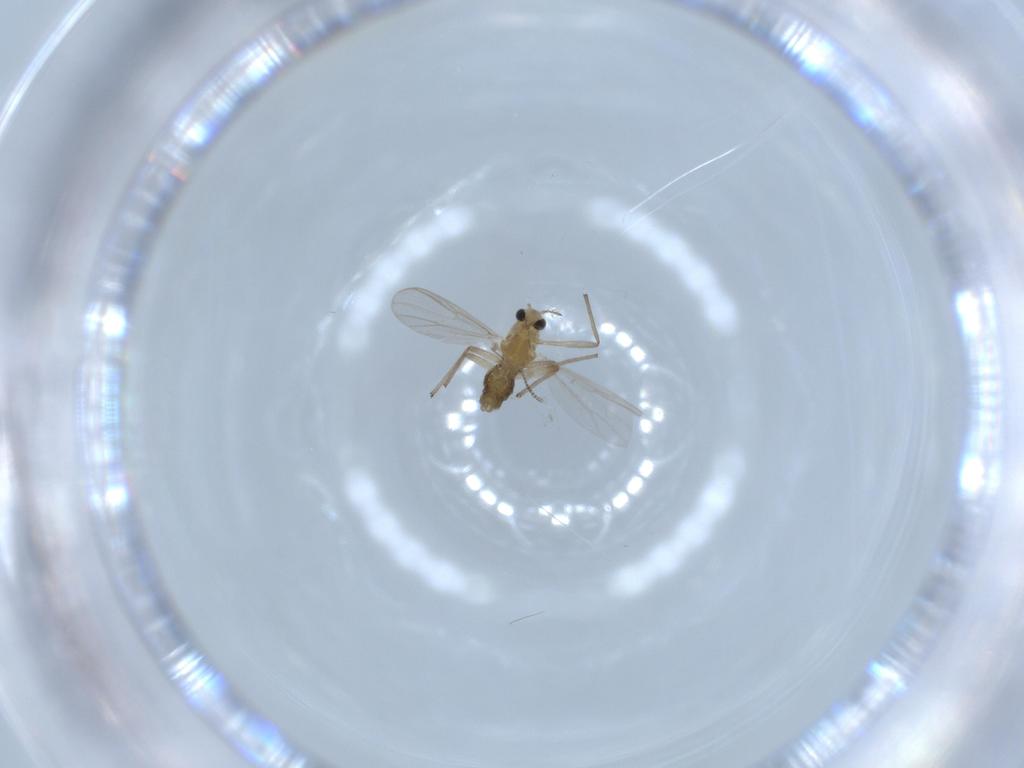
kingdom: Animalia
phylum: Arthropoda
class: Insecta
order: Diptera
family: Chironomidae
